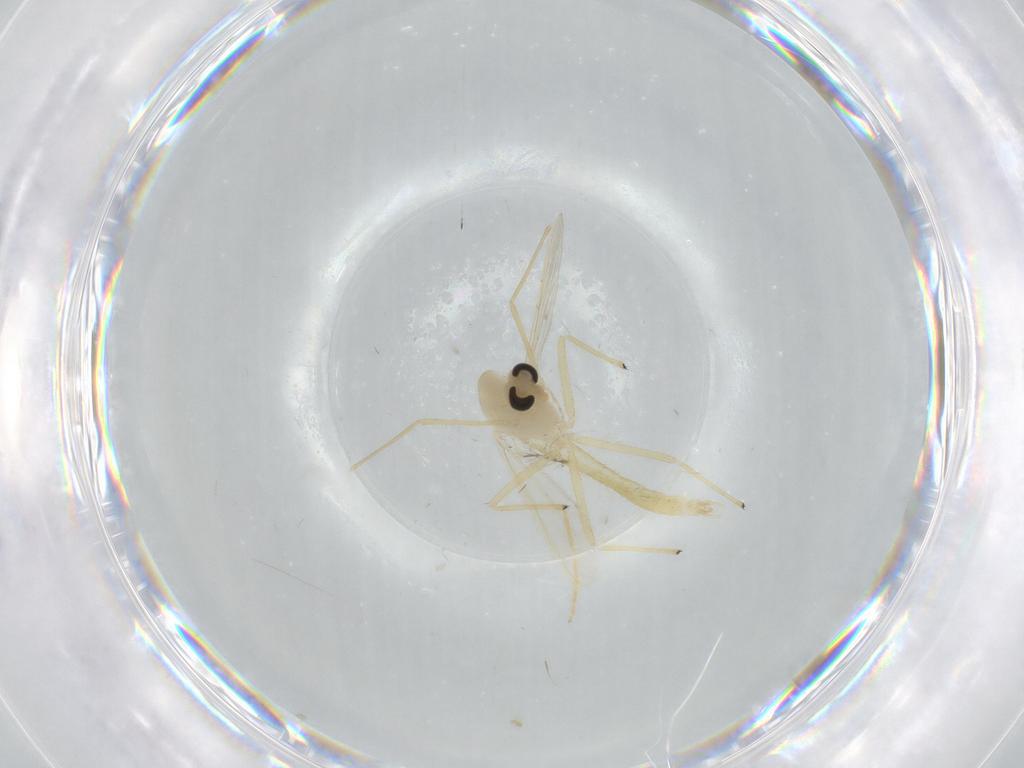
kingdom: Animalia
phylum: Arthropoda
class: Insecta
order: Diptera
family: Chironomidae
